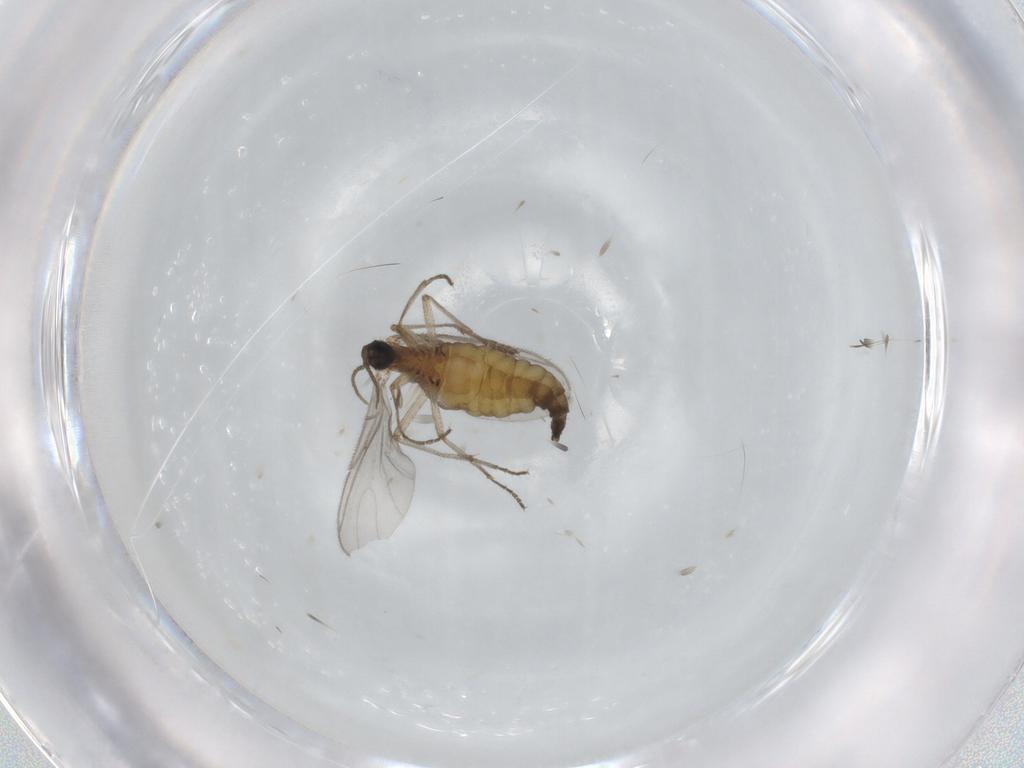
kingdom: Animalia
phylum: Arthropoda
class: Insecta
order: Diptera
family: Sciaridae
